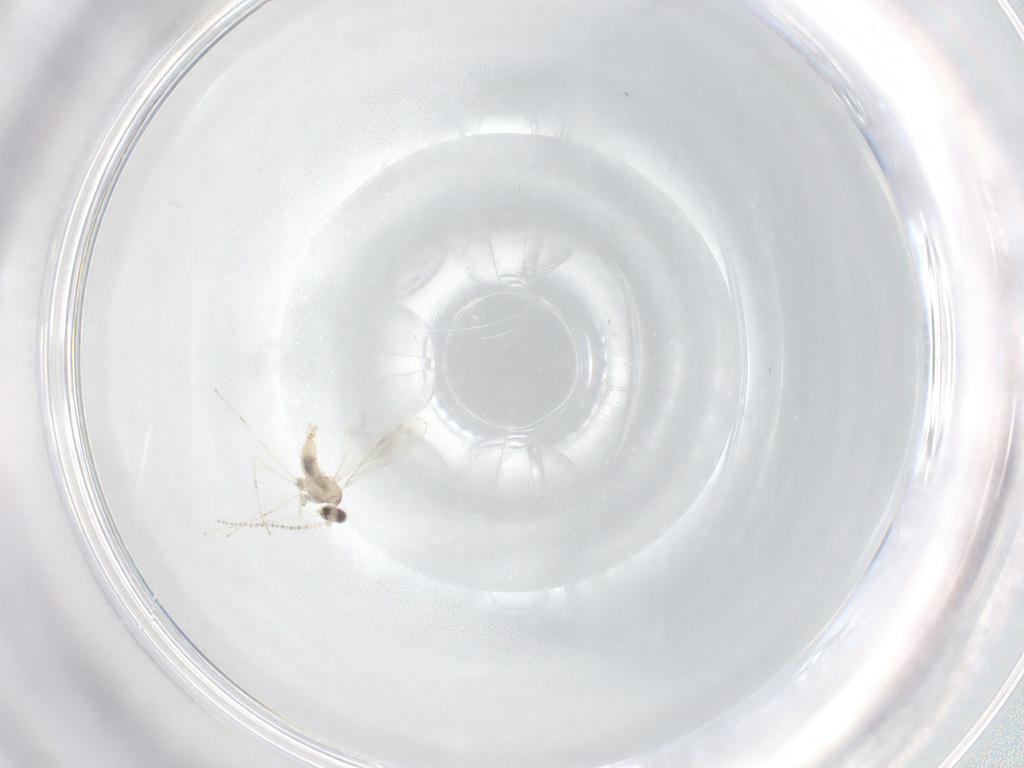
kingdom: Animalia
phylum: Arthropoda
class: Insecta
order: Diptera
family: Cecidomyiidae
